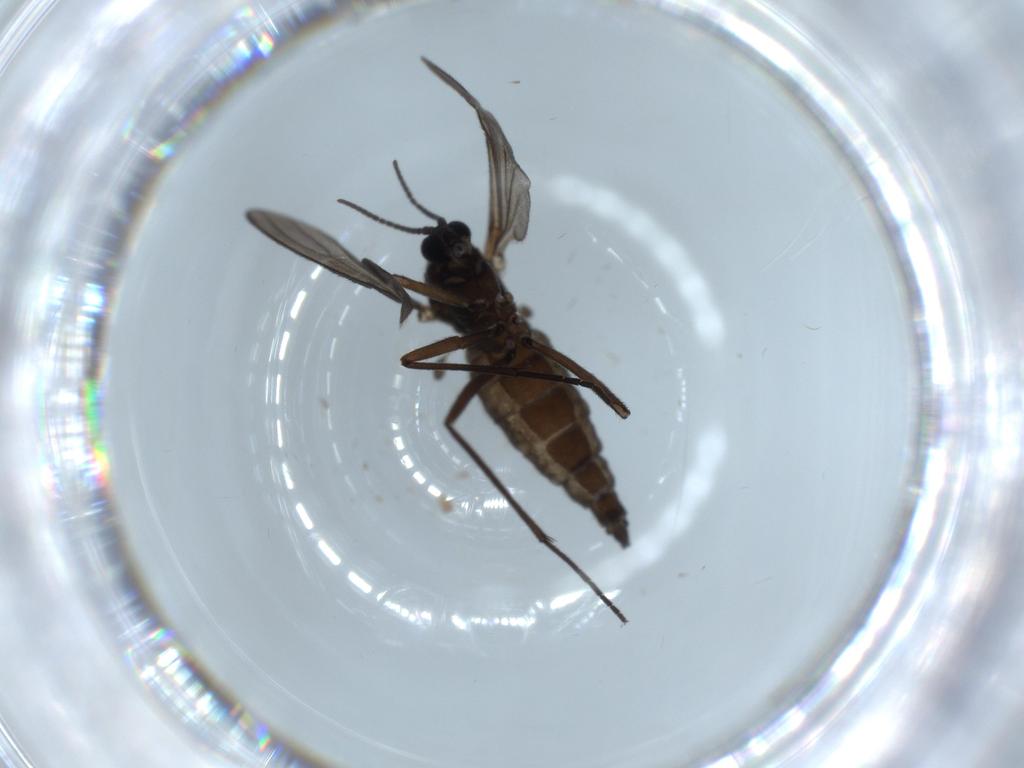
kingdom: Animalia
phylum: Arthropoda
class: Insecta
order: Diptera
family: Sciaridae
